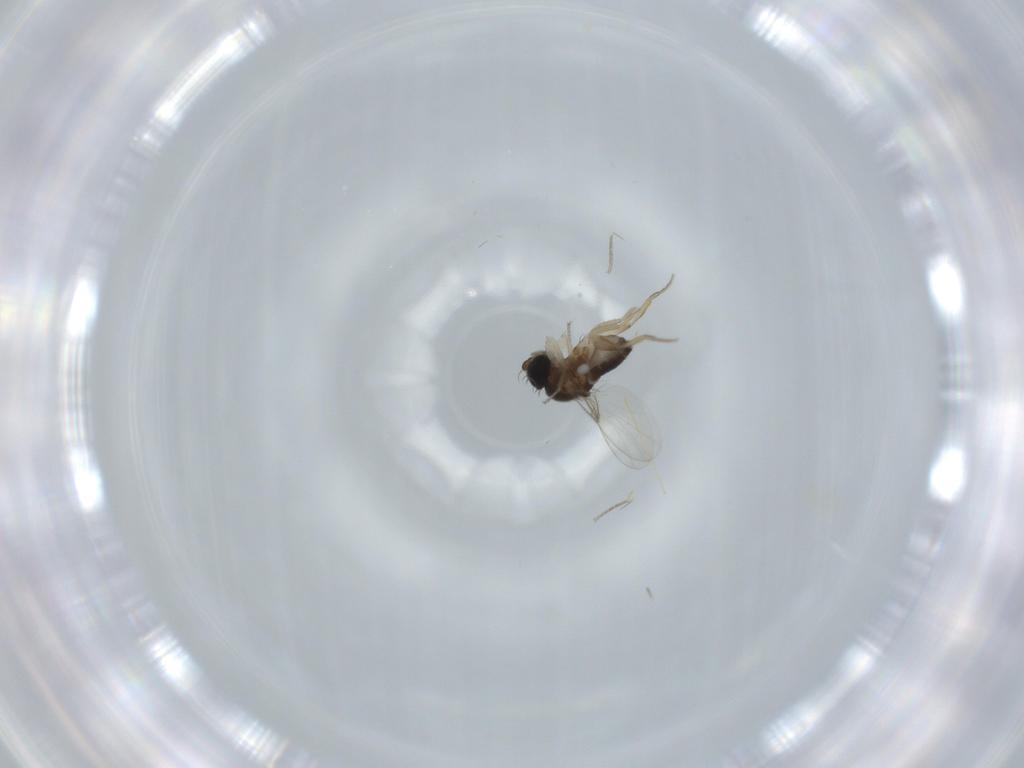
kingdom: Animalia
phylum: Arthropoda
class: Insecta
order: Diptera
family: Phoridae
